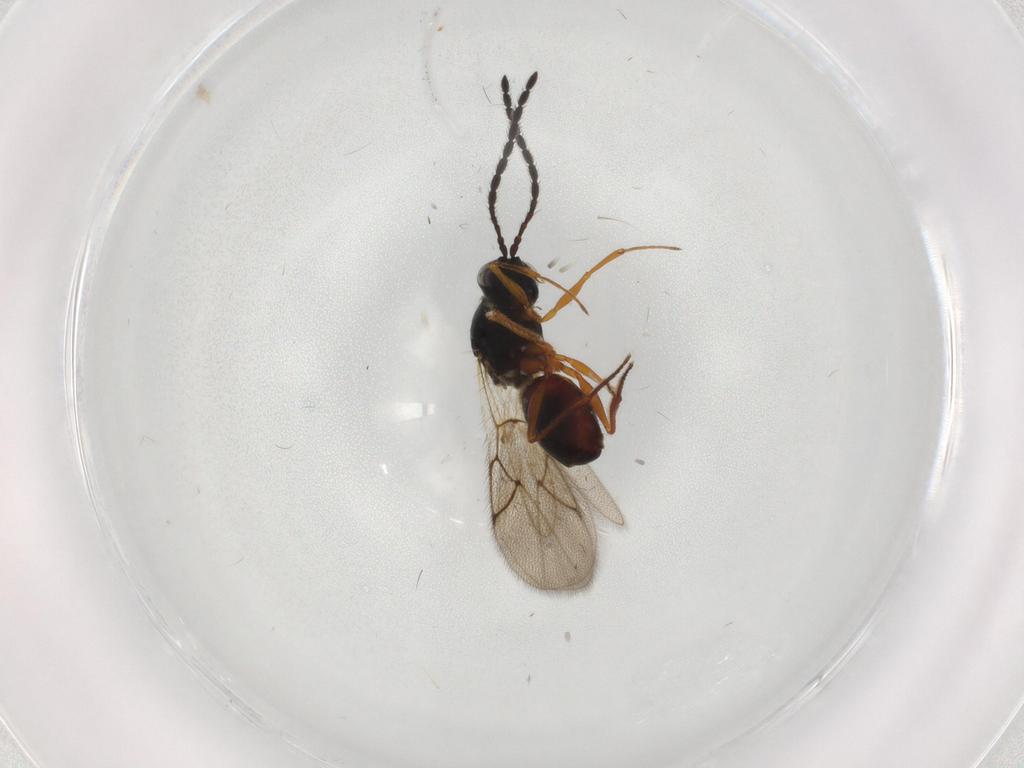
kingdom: Animalia
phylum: Arthropoda
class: Insecta
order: Hymenoptera
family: Figitidae
